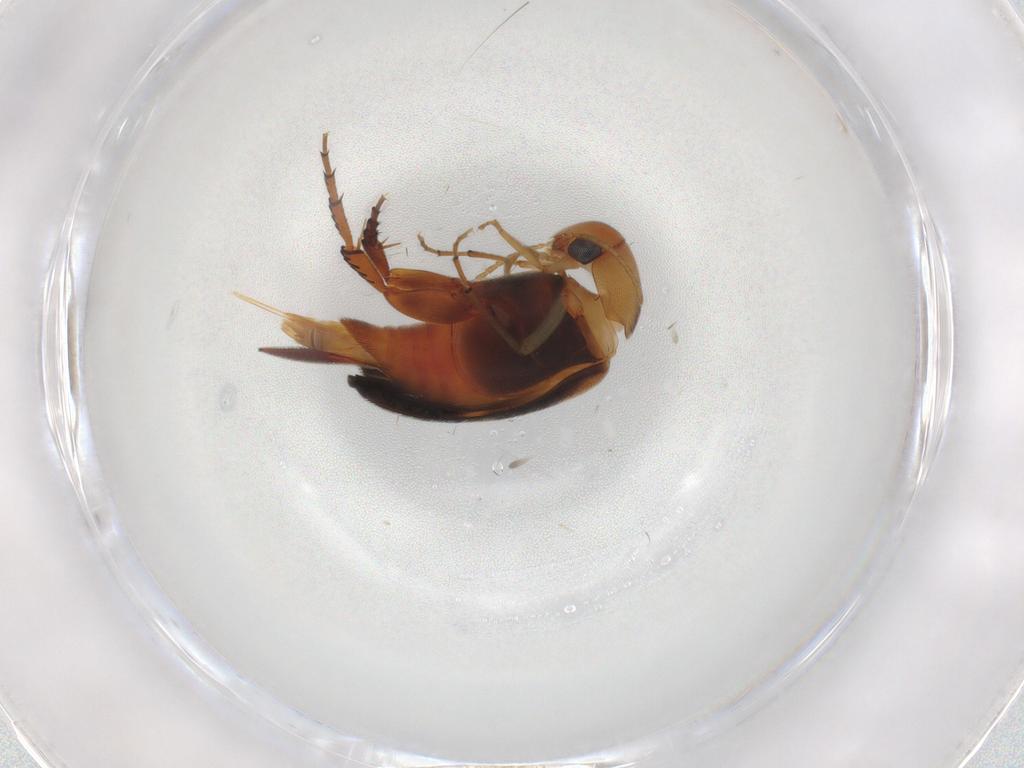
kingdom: Animalia
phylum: Arthropoda
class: Insecta
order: Coleoptera
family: Mordellidae
